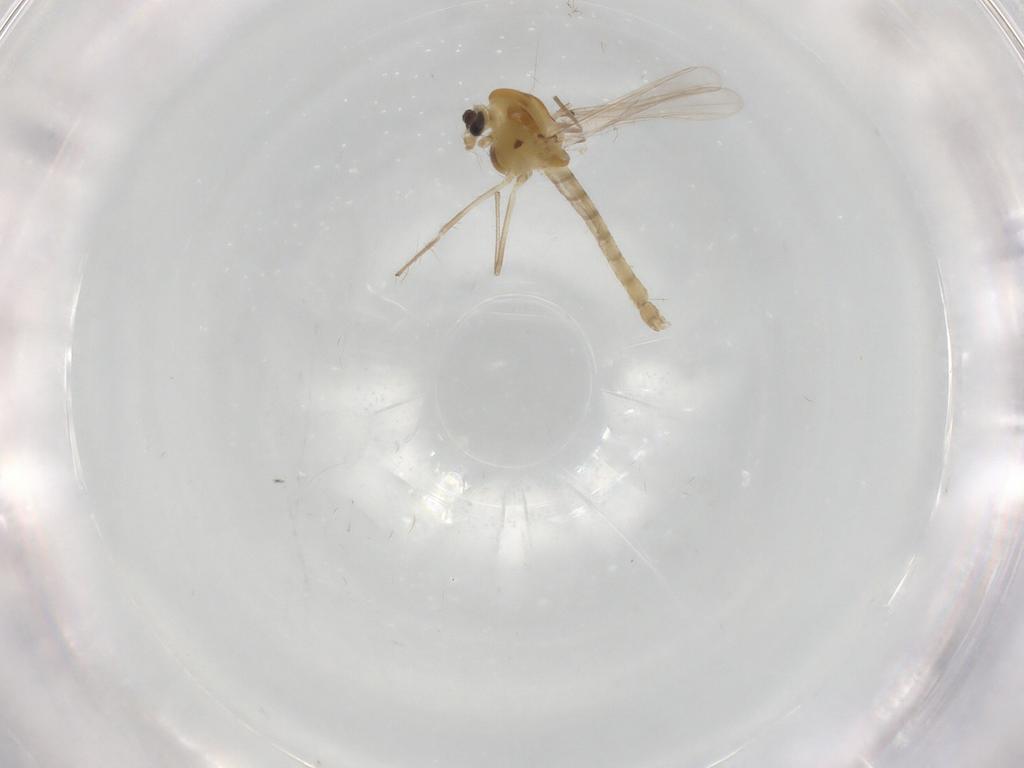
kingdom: Animalia
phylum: Arthropoda
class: Insecta
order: Diptera
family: Chironomidae
